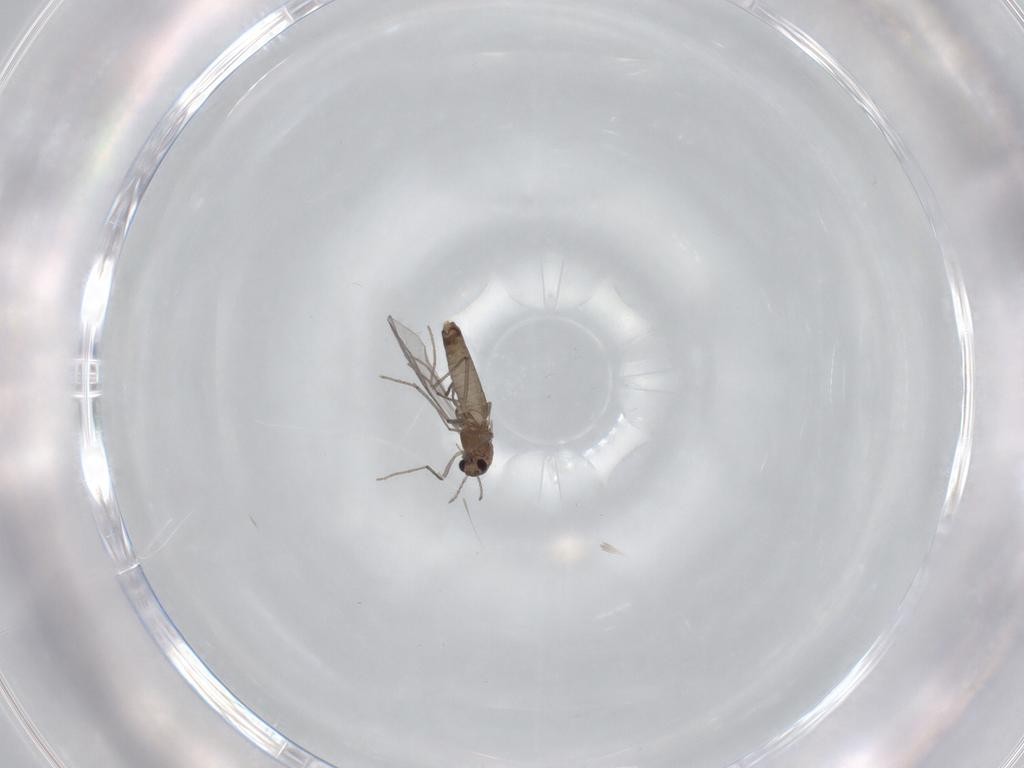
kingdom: Animalia
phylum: Arthropoda
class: Insecta
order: Diptera
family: Chironomidae
